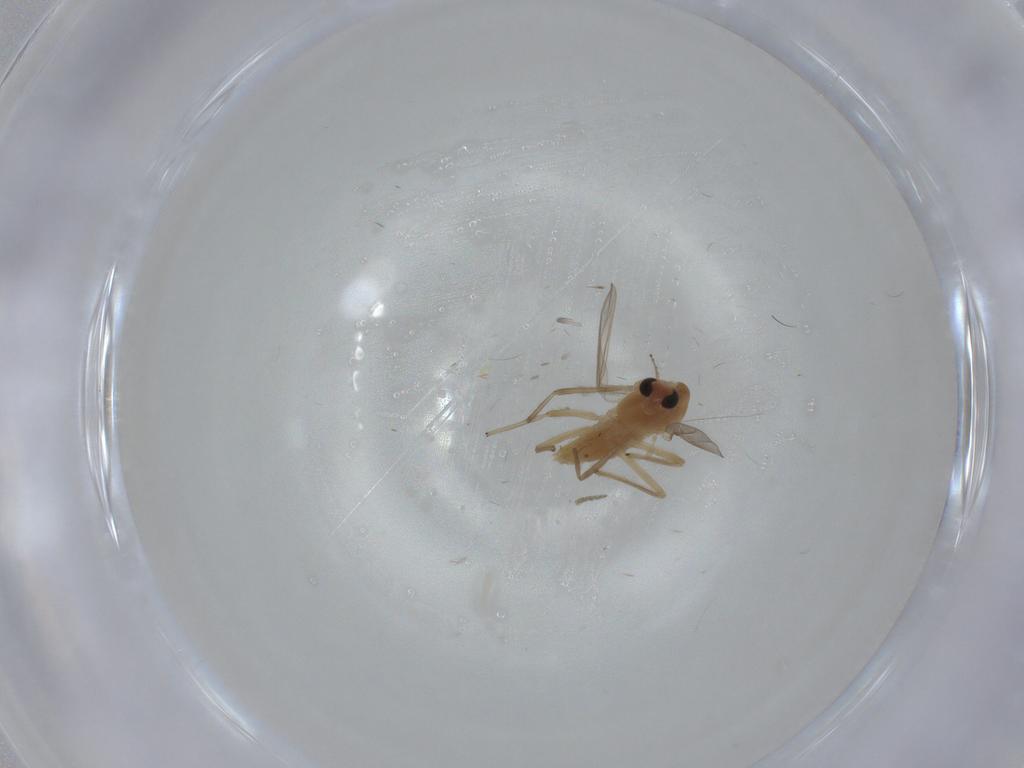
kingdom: Animalia
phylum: Arthropoda
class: Insecta
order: Diptera
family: Chironomidae
